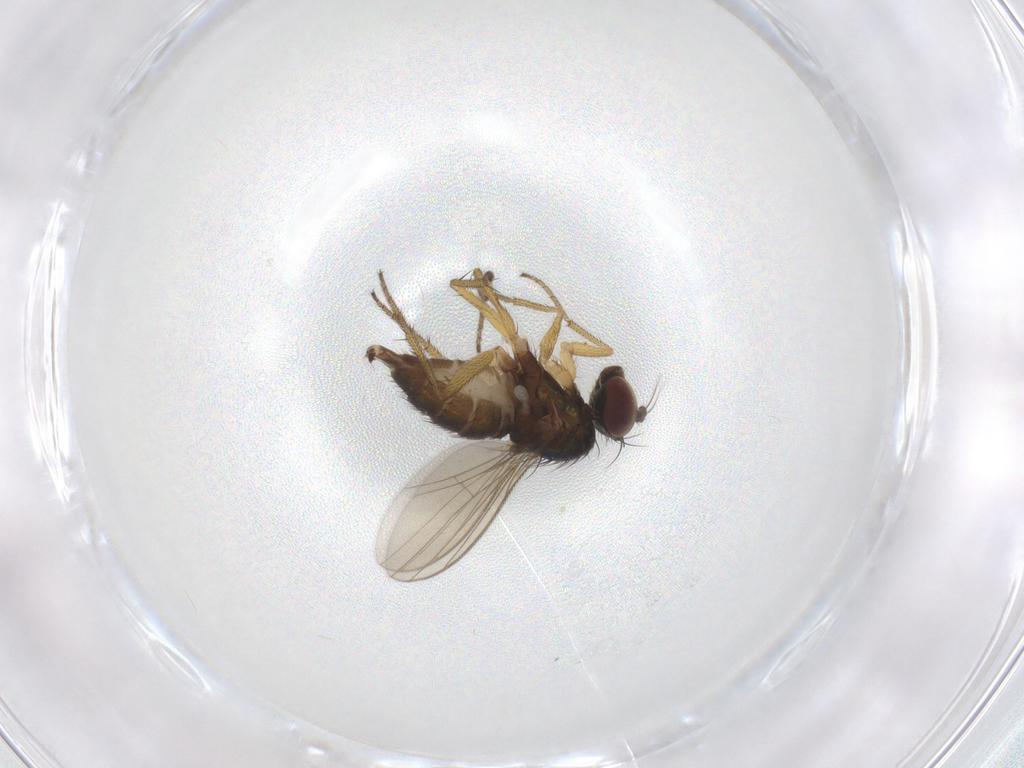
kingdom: Animalia
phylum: Arthropoda
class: Insecta
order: Diptera
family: Dolichopodidae
